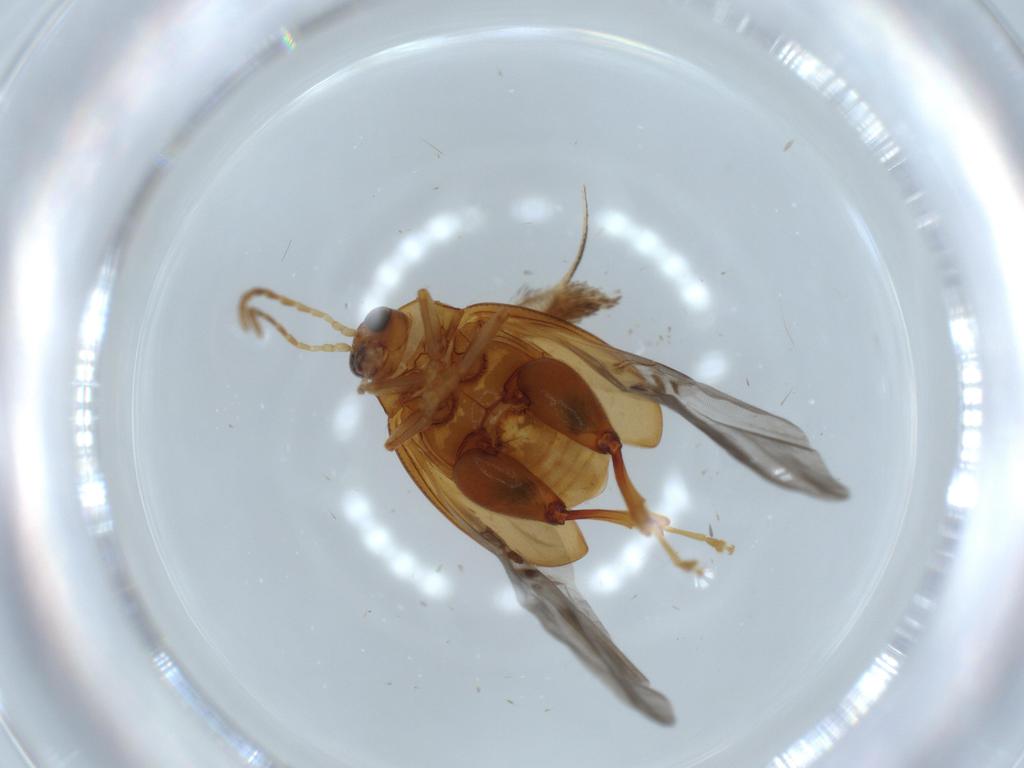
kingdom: Animalia
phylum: Arthropoda
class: Insecta
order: Coleoptera
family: Chrysomelidae
